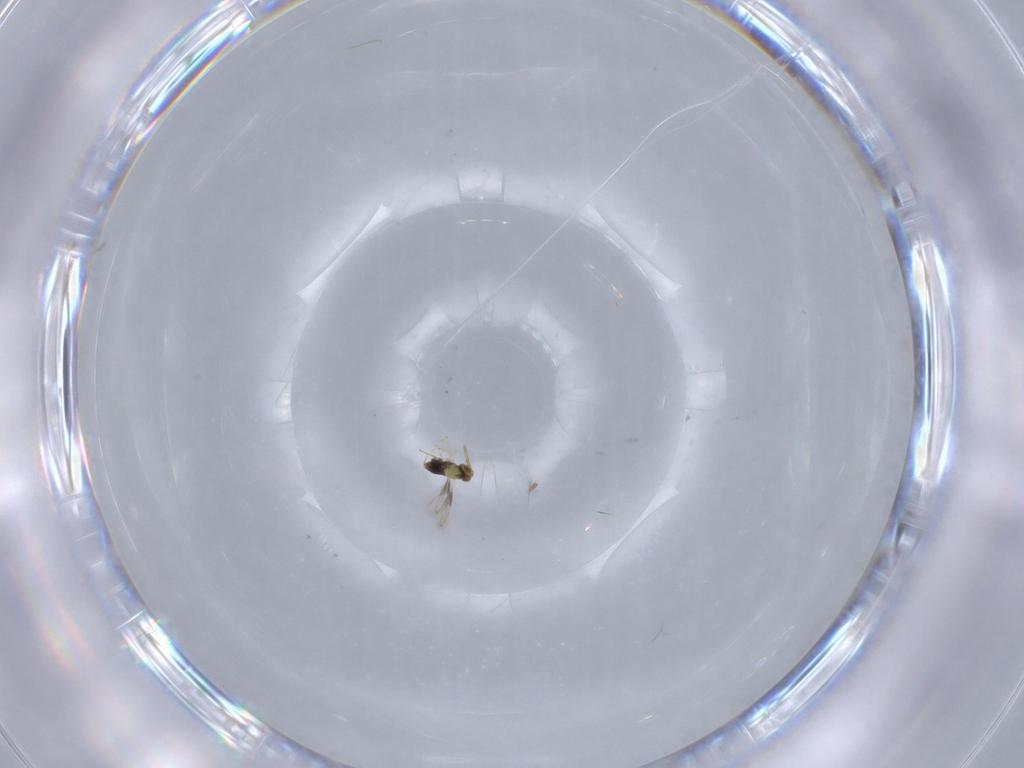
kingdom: Animalia
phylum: Arthropoda
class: Insecta
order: Hymenoptera
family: Aphelinidae
